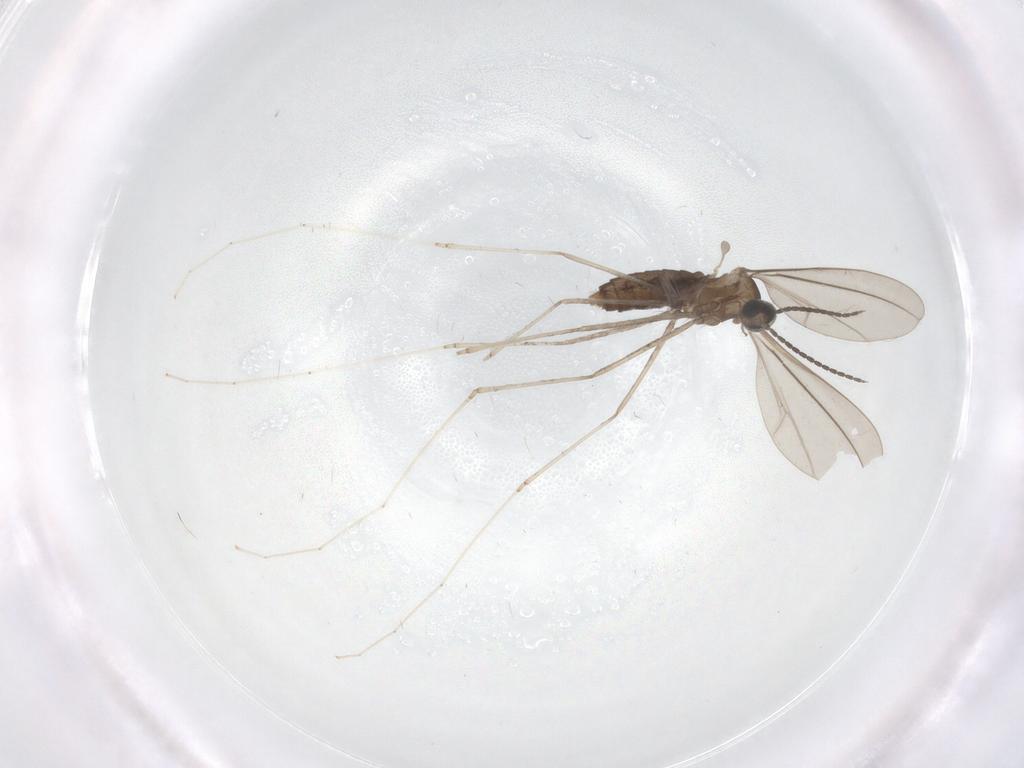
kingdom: Animalia
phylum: Arthropoda
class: Insecta
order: Diptera
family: Cecidomyiidae
